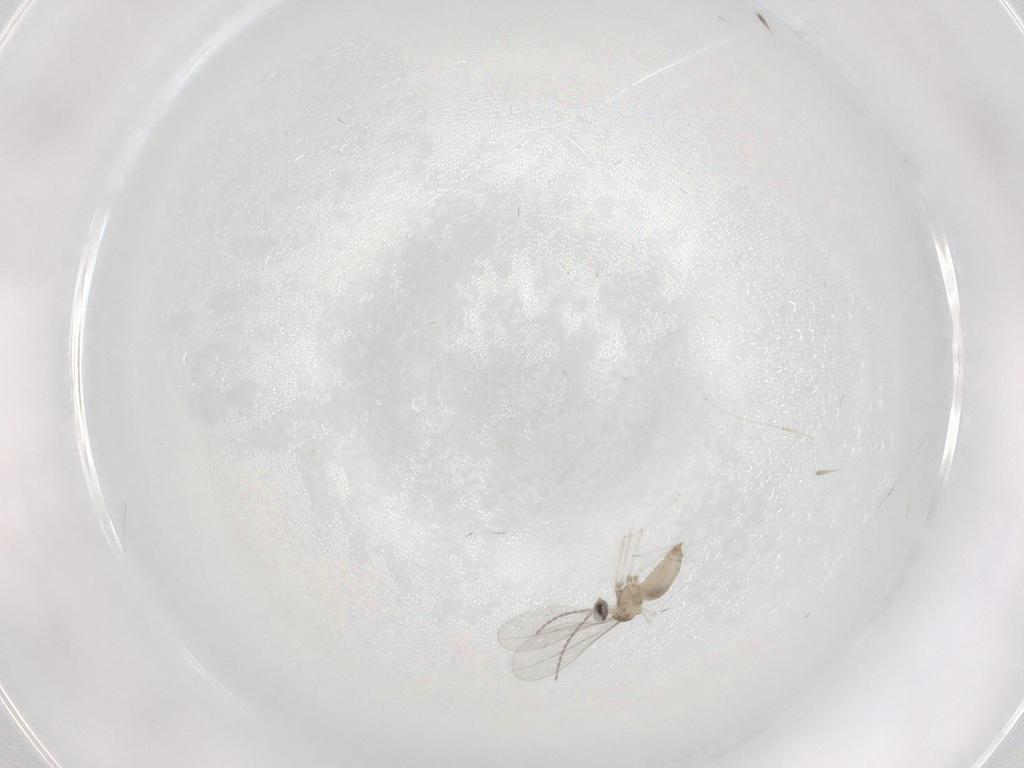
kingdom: Animalia
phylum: Arthropoda
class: Insecta
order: Diptera
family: Cecidomyiidae
